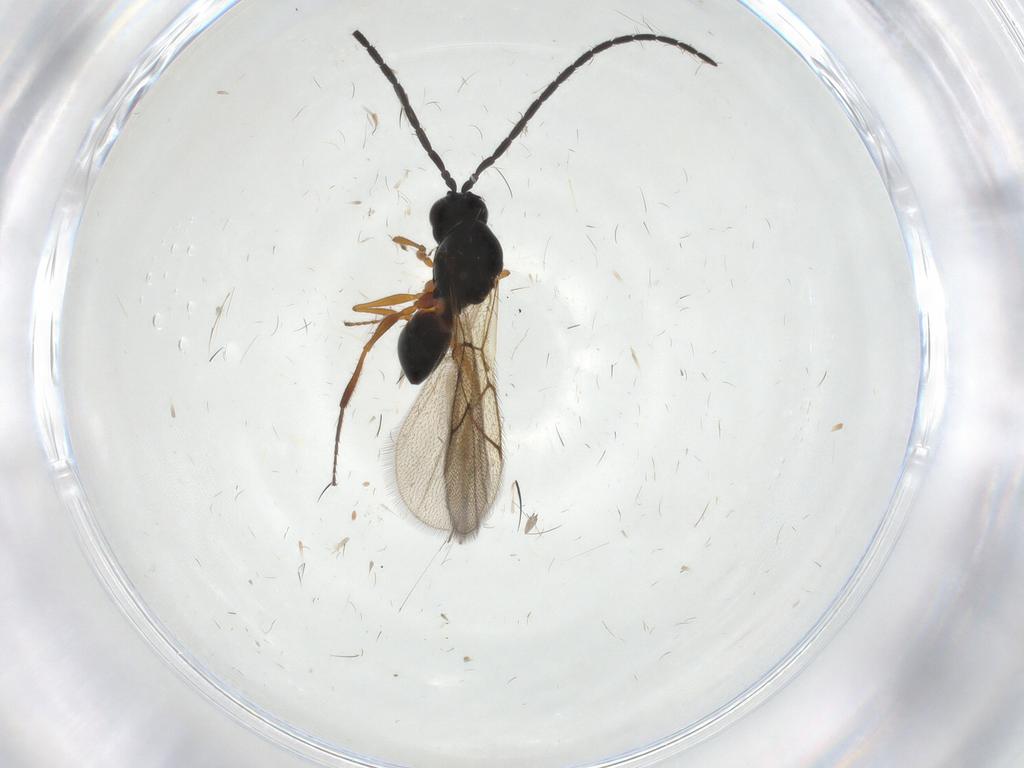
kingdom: Animalia
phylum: Arthropoda
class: Insecta
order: Hymenoptera
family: Figitidae
